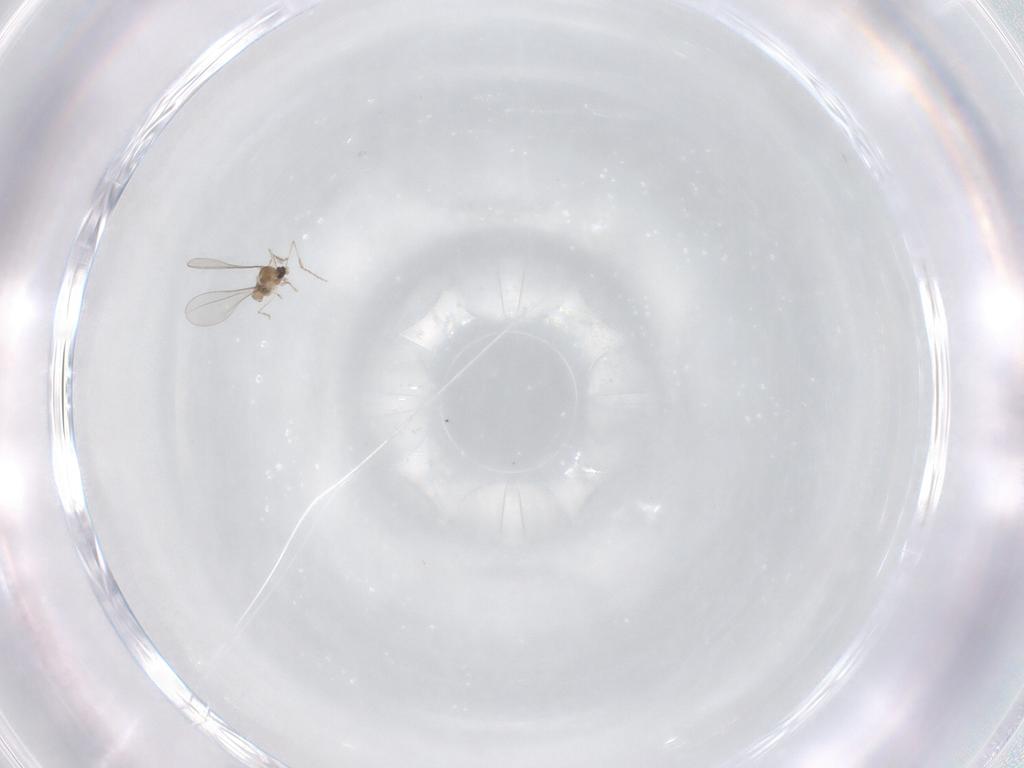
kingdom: Animalia
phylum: Arthropoda
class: Insecta
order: Diptera
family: Cecidomyiidae
